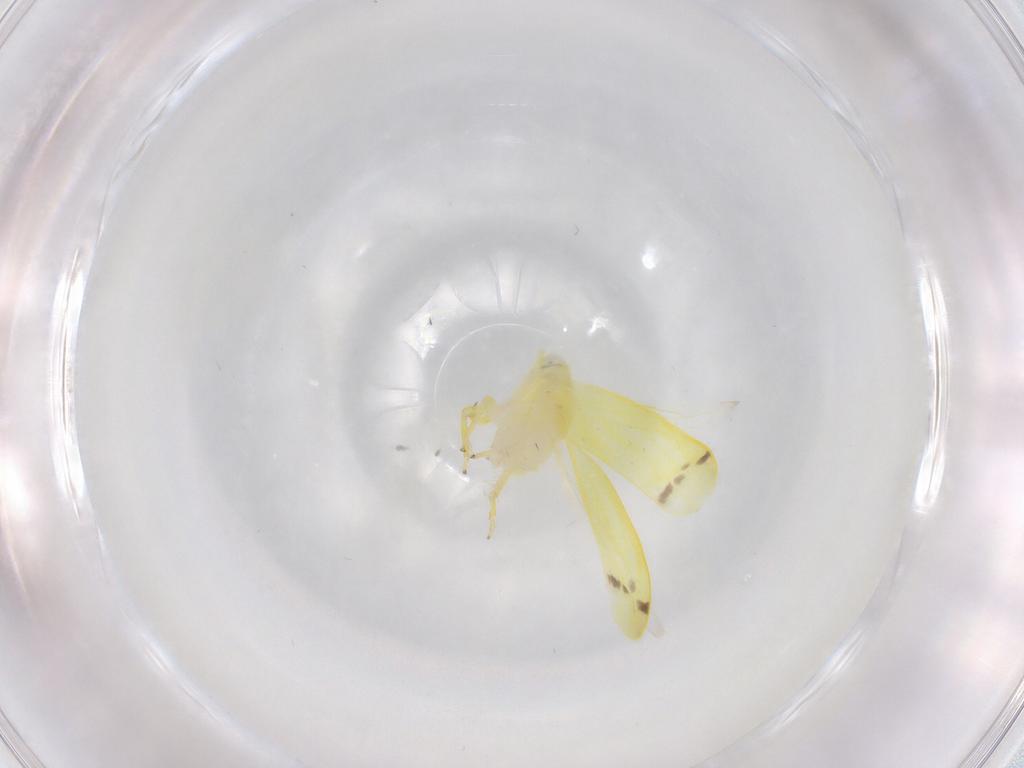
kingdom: Animalia
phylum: Arthropoda
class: Insecta
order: Hemiptera
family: Cicadellidae
